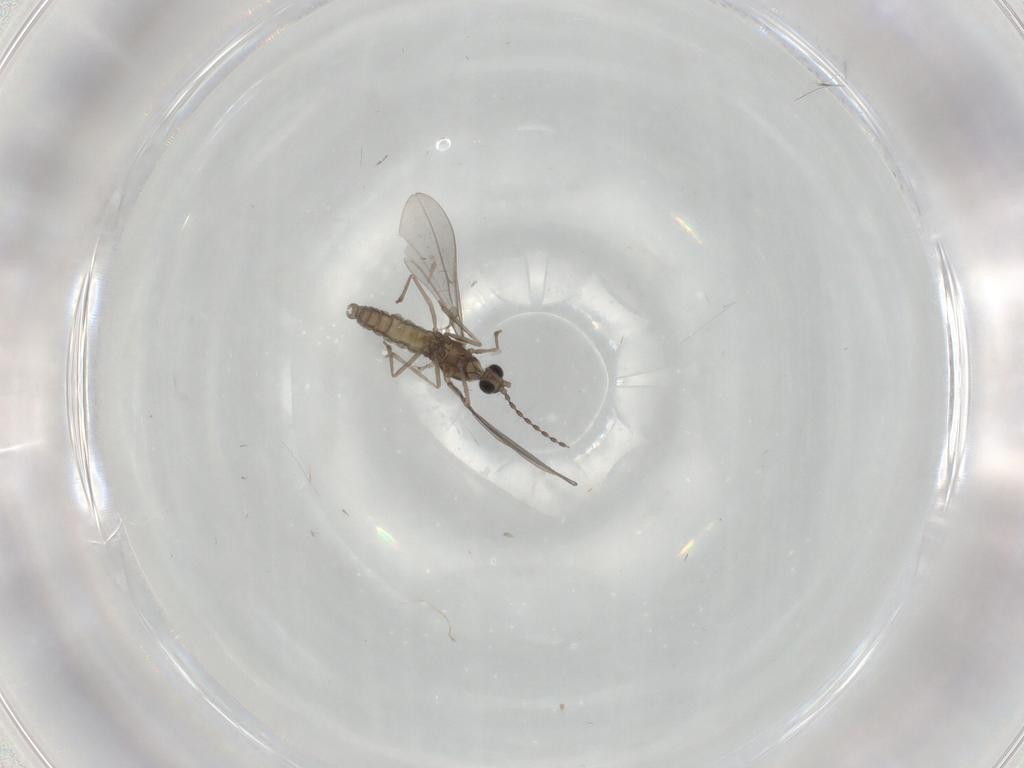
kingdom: Animalia
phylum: Arthropoda
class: Insecta
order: Diptera
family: Cecidomyiidae
